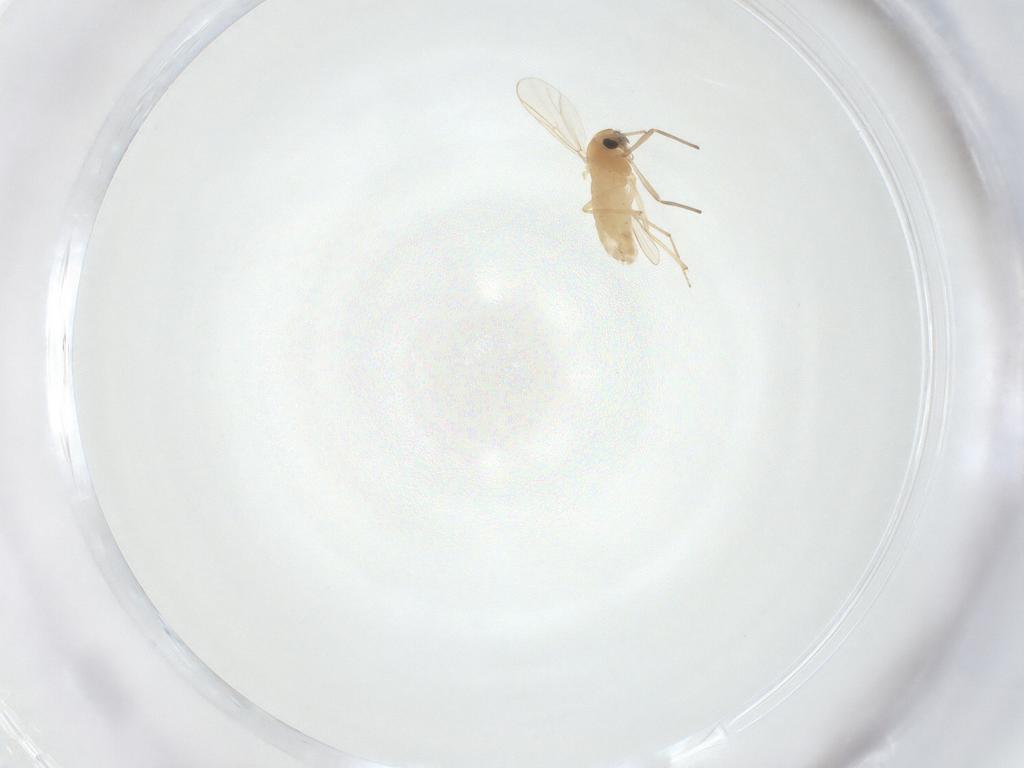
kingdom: Animalia
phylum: Arthropoda
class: Insecta
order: Diptera
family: Chironomidae
